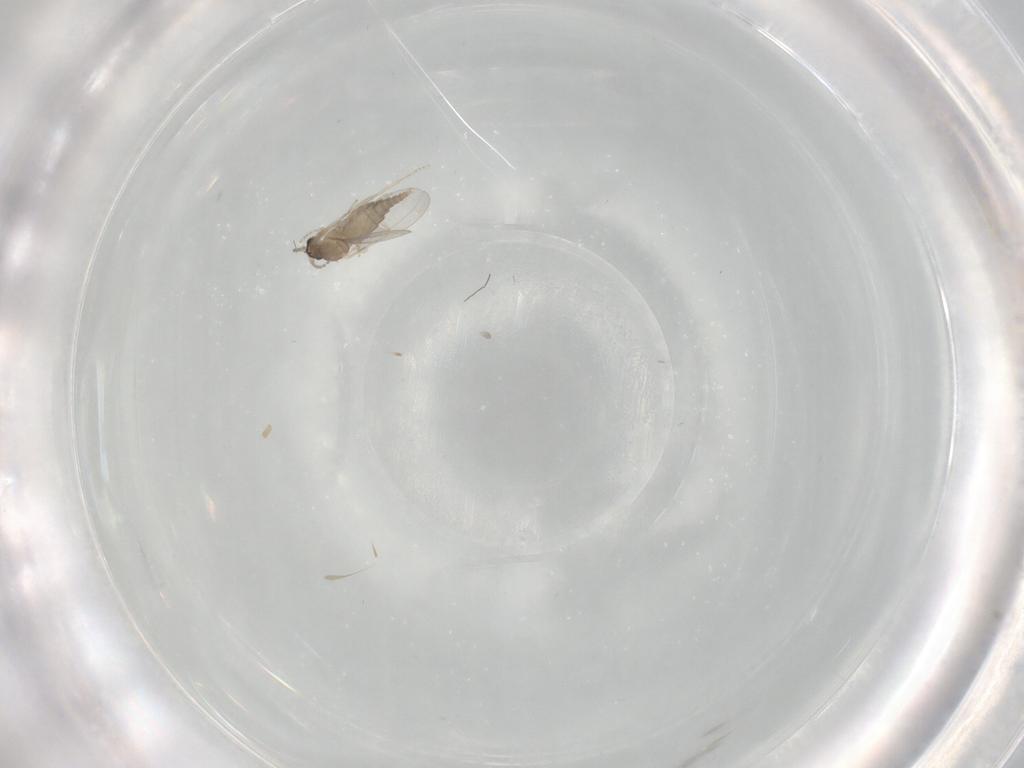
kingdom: Animalia
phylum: Arthropoda
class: Insecta
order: Diptera
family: Cecidomyiidae
